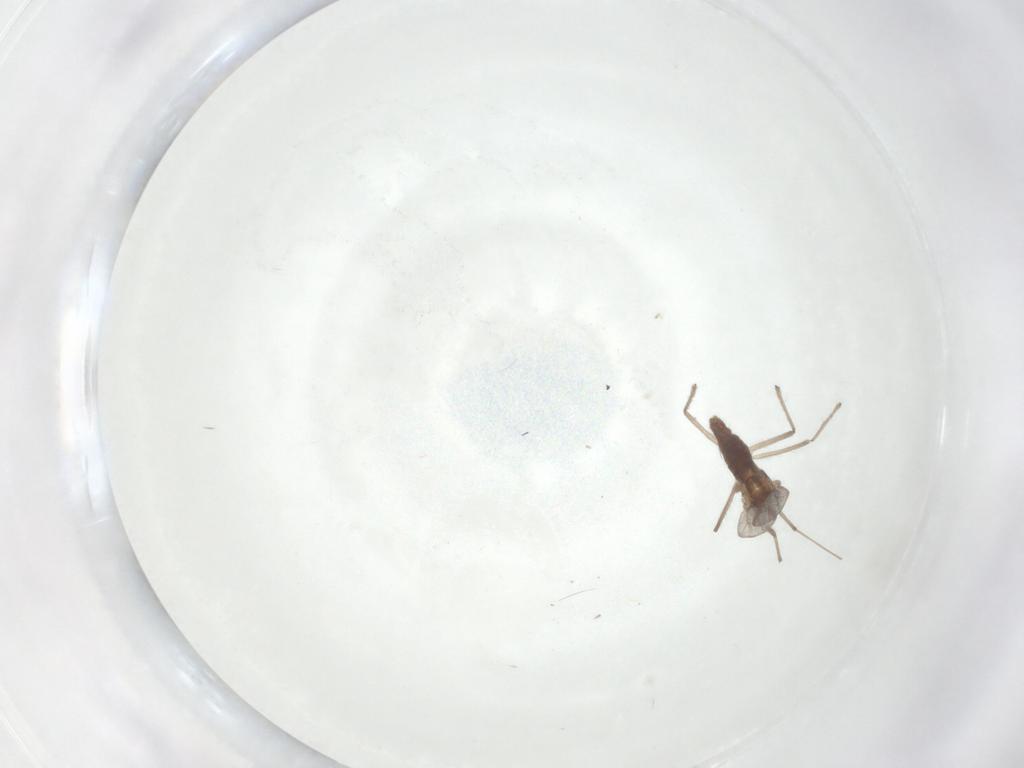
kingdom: Animalia
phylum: Arthropoda
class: Insecta
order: Diptera
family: Chironomidae
